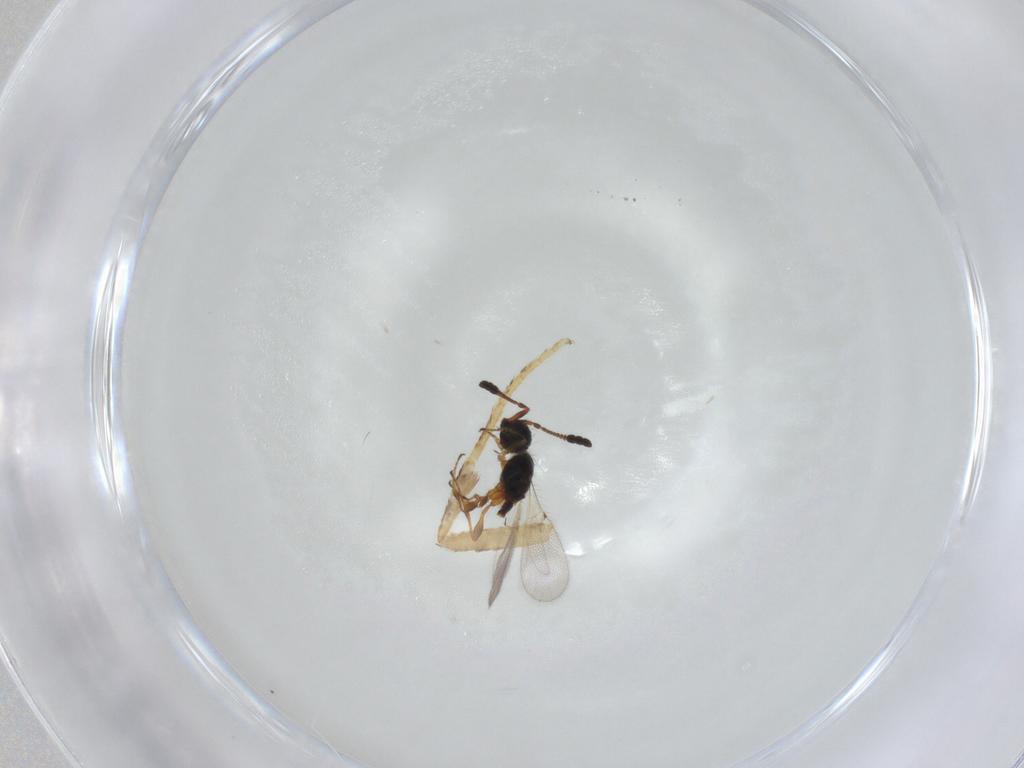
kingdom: Animalia
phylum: Arthropoda
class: Insecta
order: Hymenoptera
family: Diapriidae
